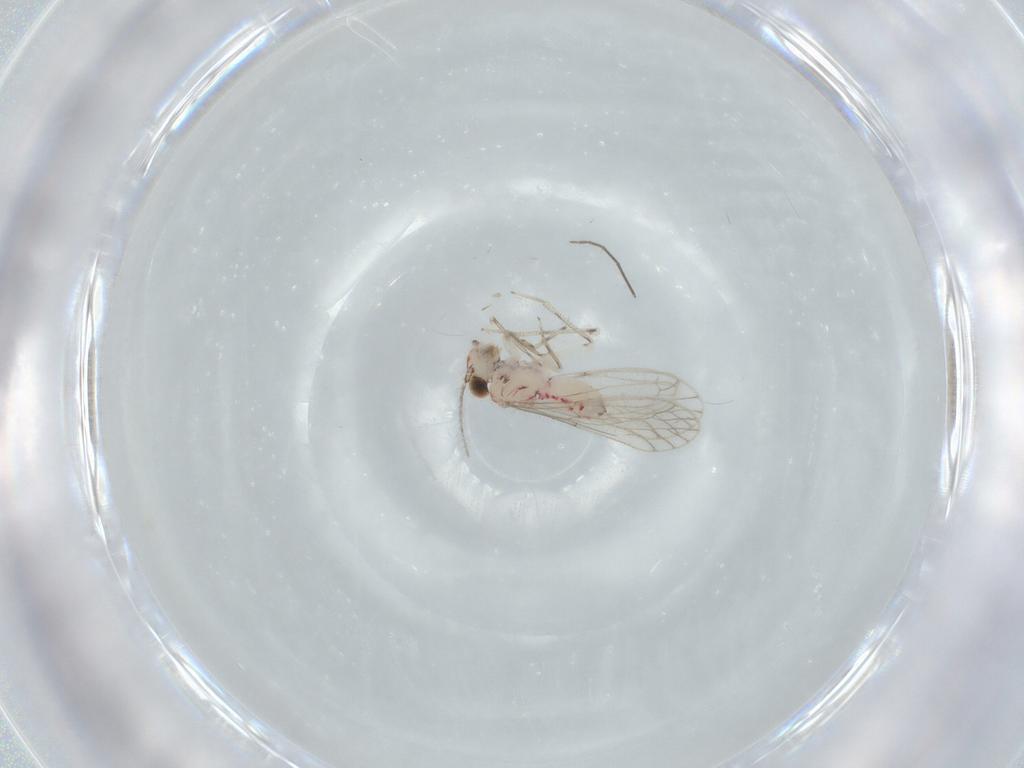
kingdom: Animalia
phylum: Arthropoda
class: Insecta
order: Psocodea
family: Caeciliusidae
